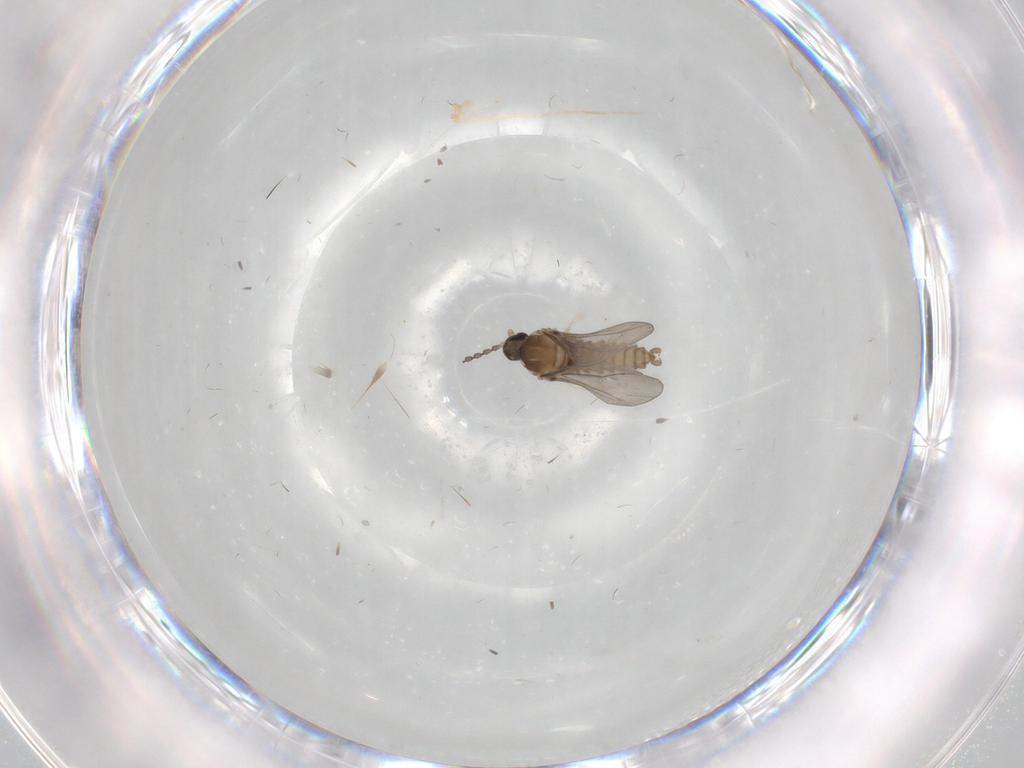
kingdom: Animalia
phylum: Arthropoda
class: Insecta
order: Diptera
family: Cecidomyiidae
